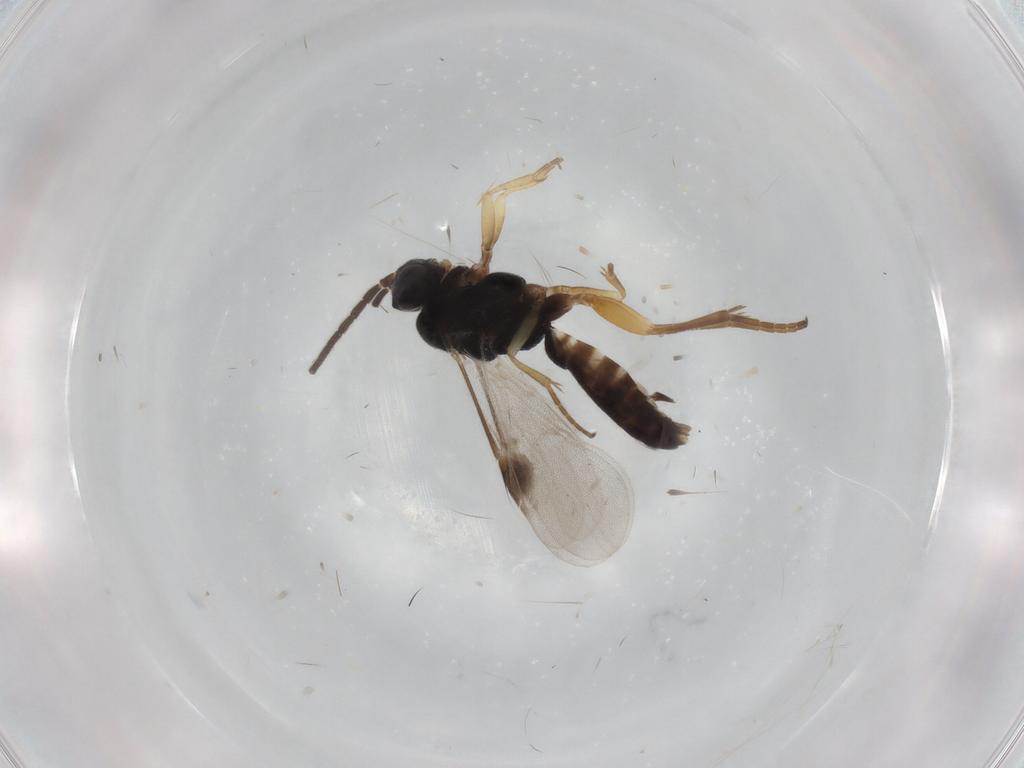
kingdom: Animalia
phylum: Arthropoda
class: Insecta
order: Hymenoptera
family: Braconidae
